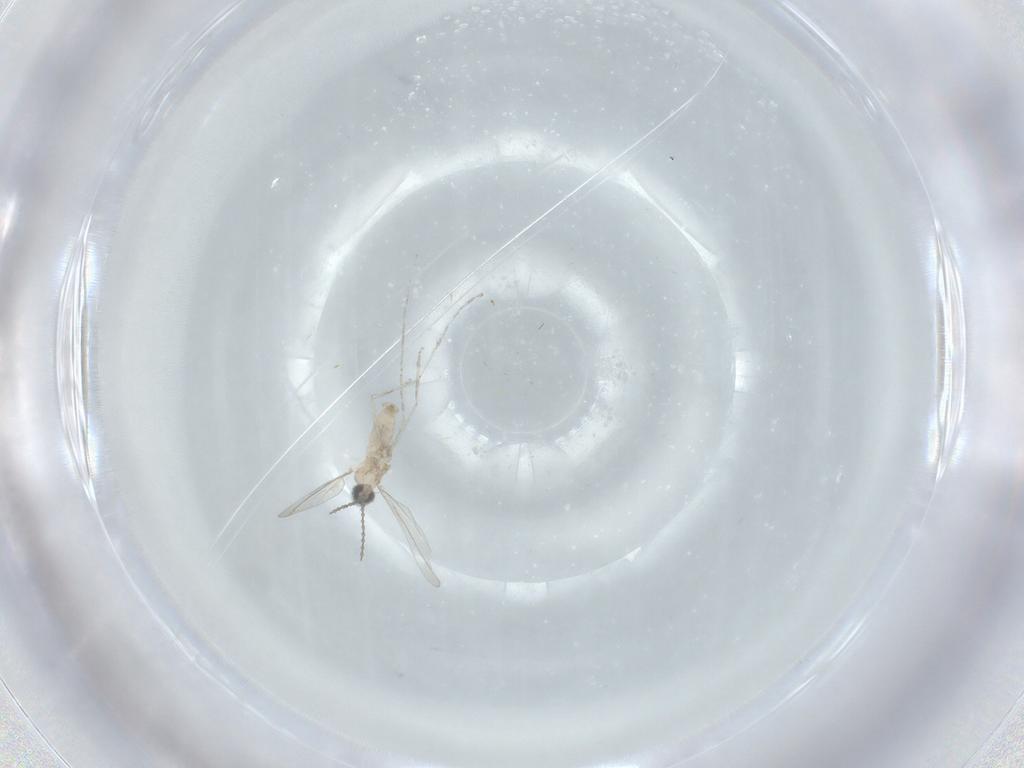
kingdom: Animalia
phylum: Arthropoda
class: Insecta
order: Diptera
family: Cecidomyiidae
